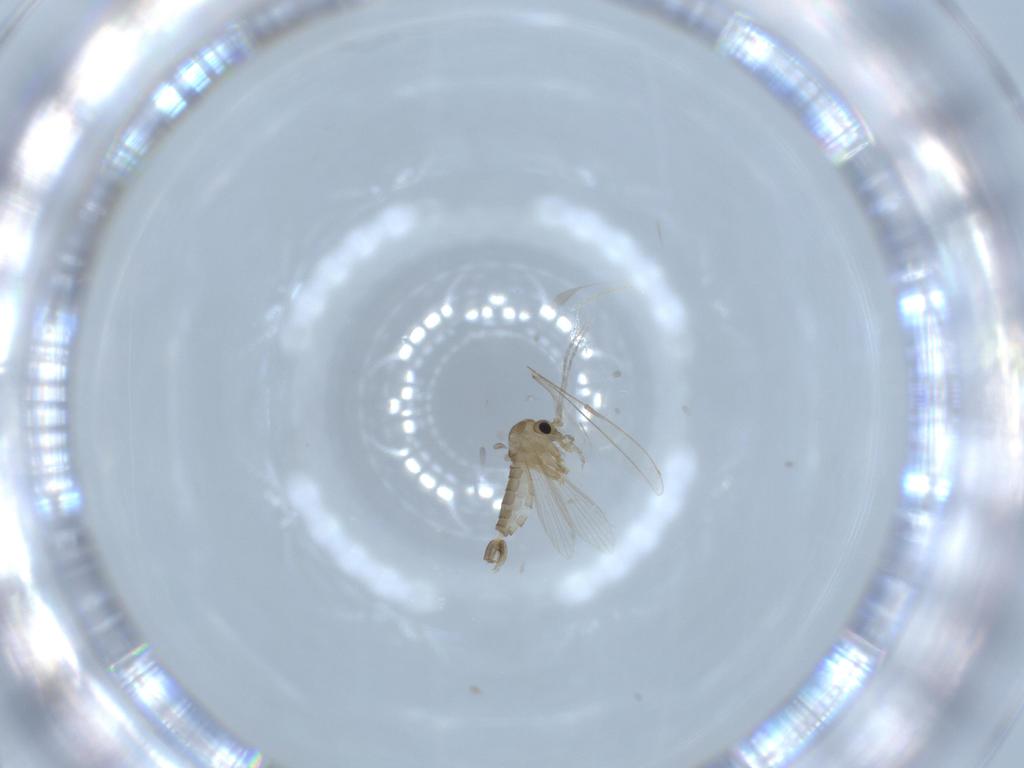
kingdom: Animalia
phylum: Arthropoda
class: Insecta
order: Diptera
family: Psychodidae
